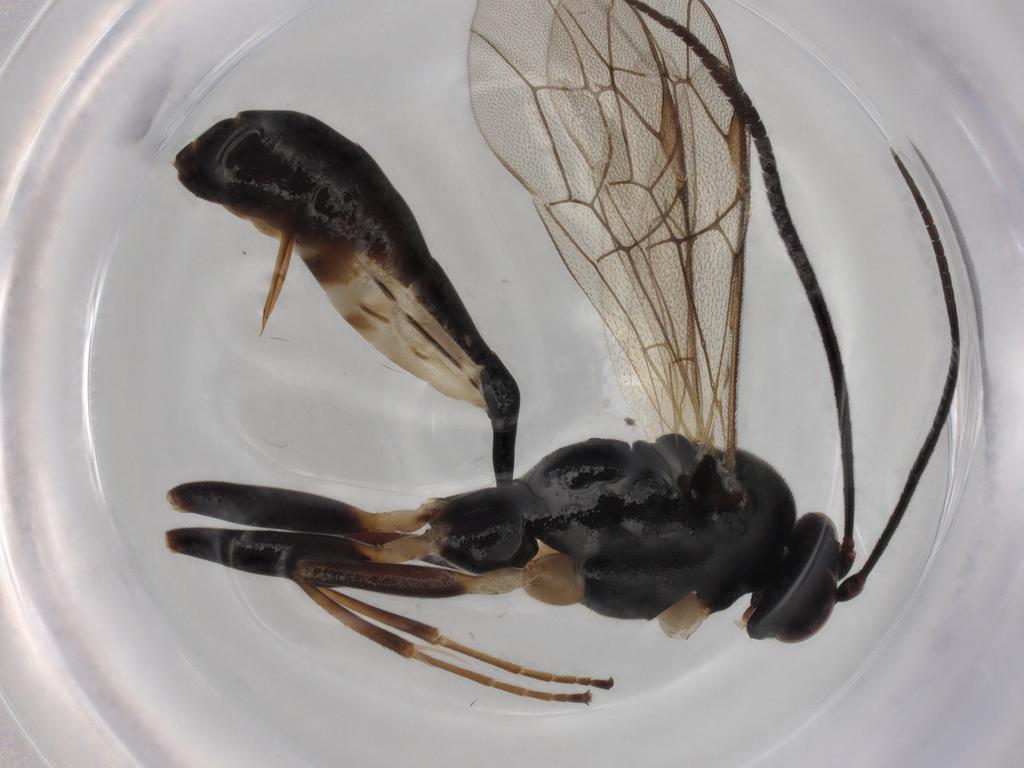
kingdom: Animalia
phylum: Arthropoda
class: Insecta
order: Hymenoptera
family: Ichneumonidae
